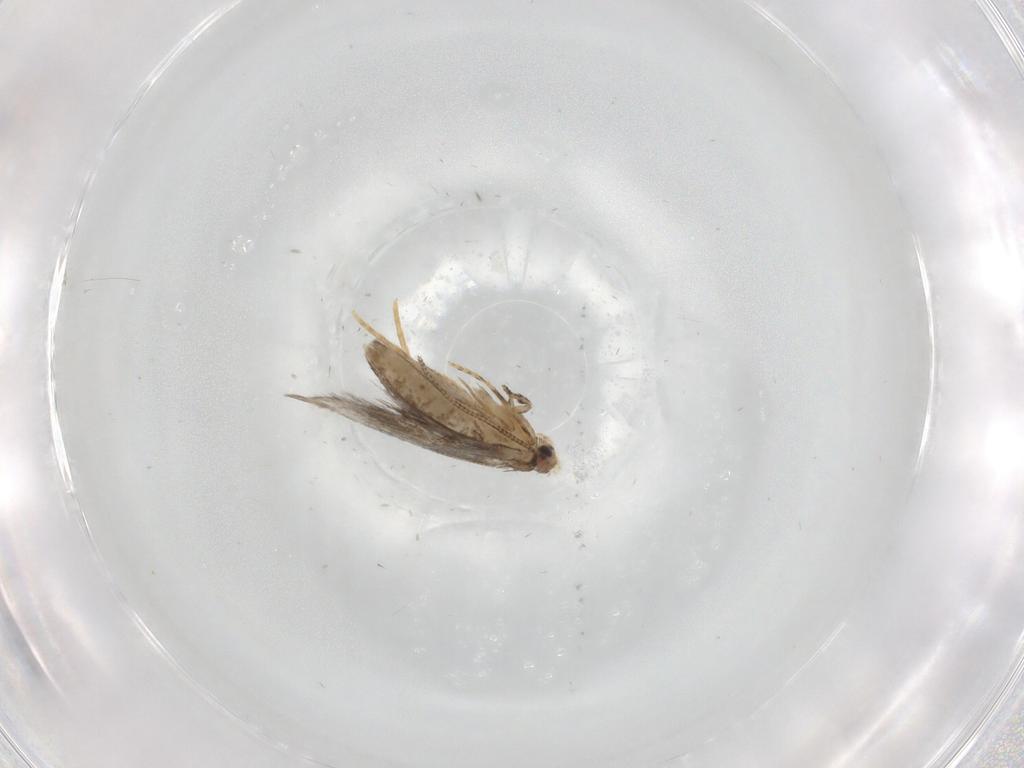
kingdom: Animalia
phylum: Arthropoda
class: Insecta
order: Lepidoptera
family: Meessiidae
